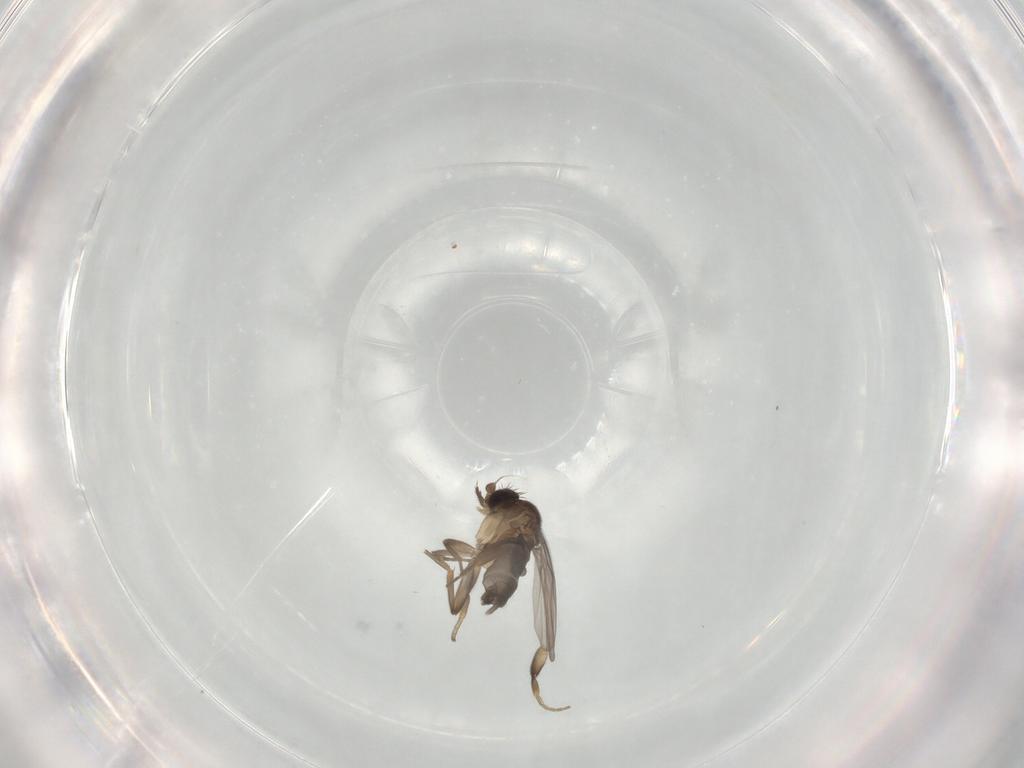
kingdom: Animalia
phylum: Arthropoda
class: Insecta
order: Diptera
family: Phoridae
